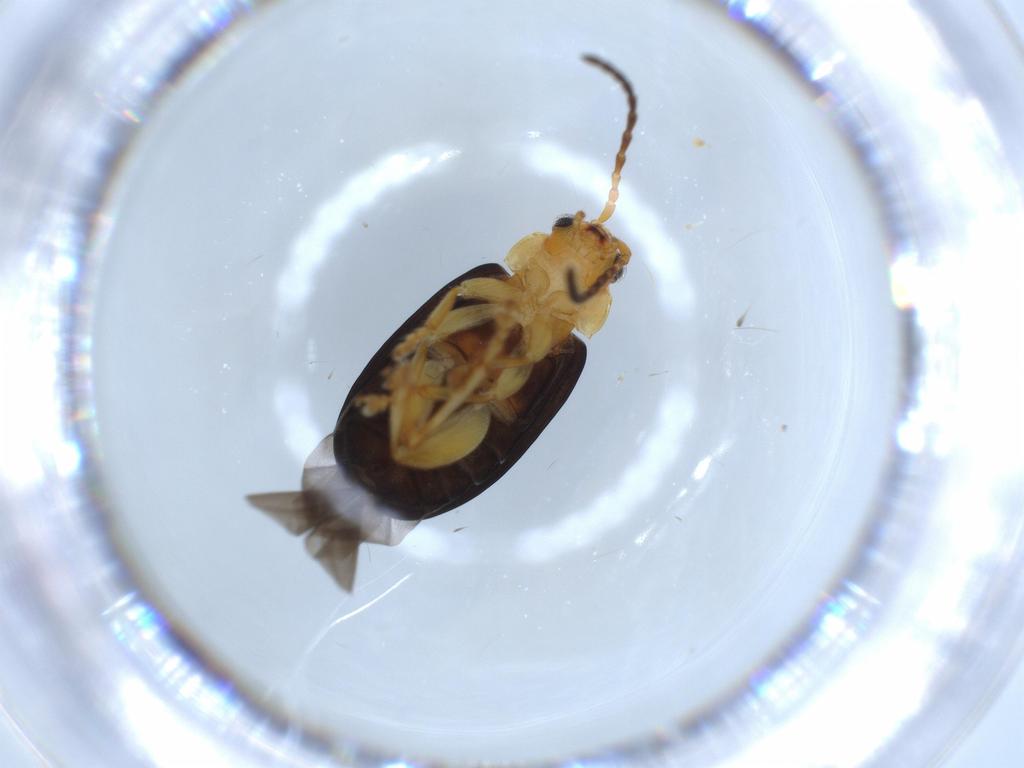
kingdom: Animalia
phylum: Arthropoda
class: Insecta
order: Coleoptera
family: Chrysomelidae
